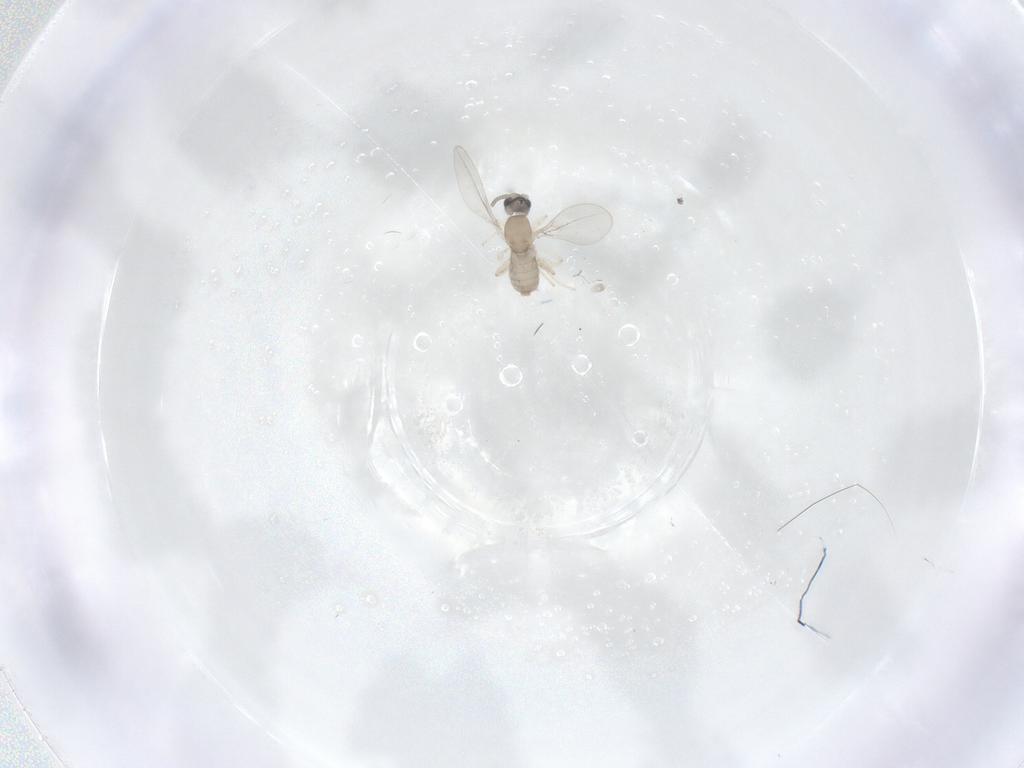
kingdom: Animalia
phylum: Arthropoda
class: Insecta
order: Diptera
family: Cecidomyiidae
